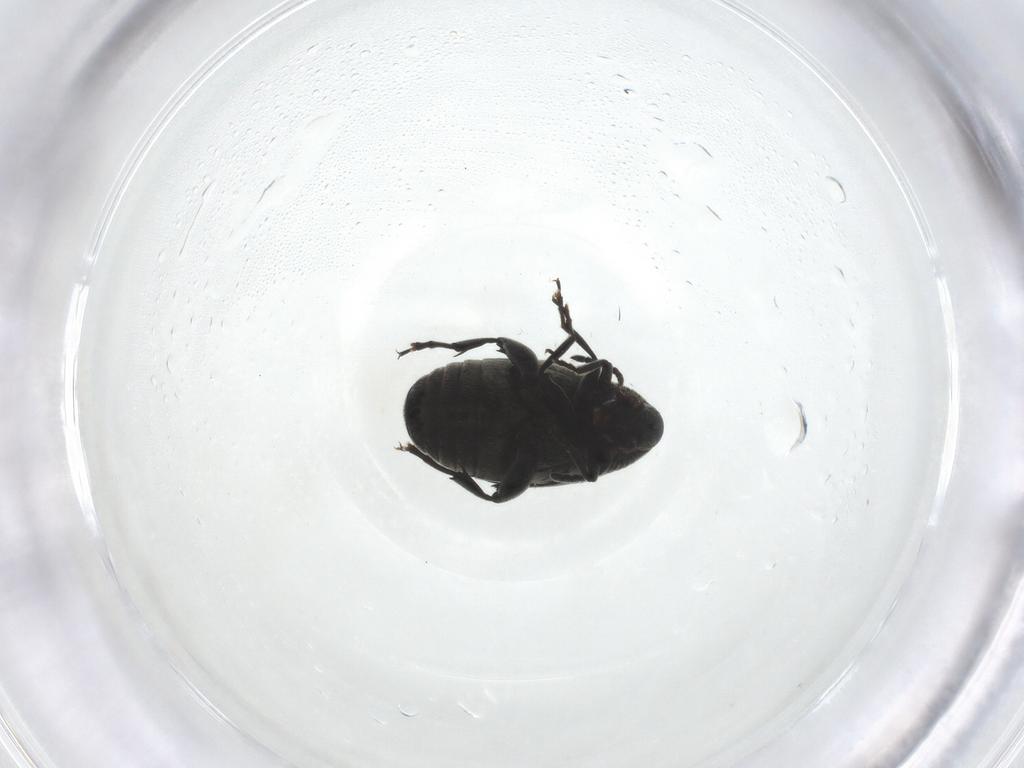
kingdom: Animalia
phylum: Arthropoda
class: Insecta
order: Coleoptera
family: Chrysomelidae
